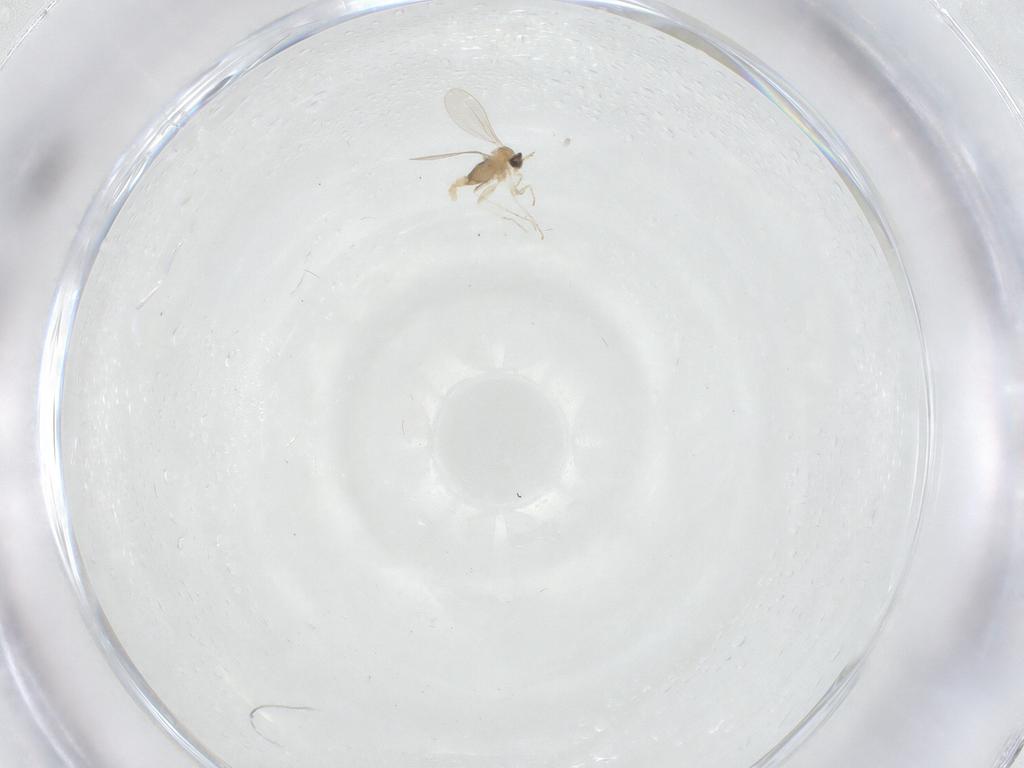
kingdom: Animalia
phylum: Arthropoda
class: Insecta
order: Diptera
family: Cecidomyiidae
